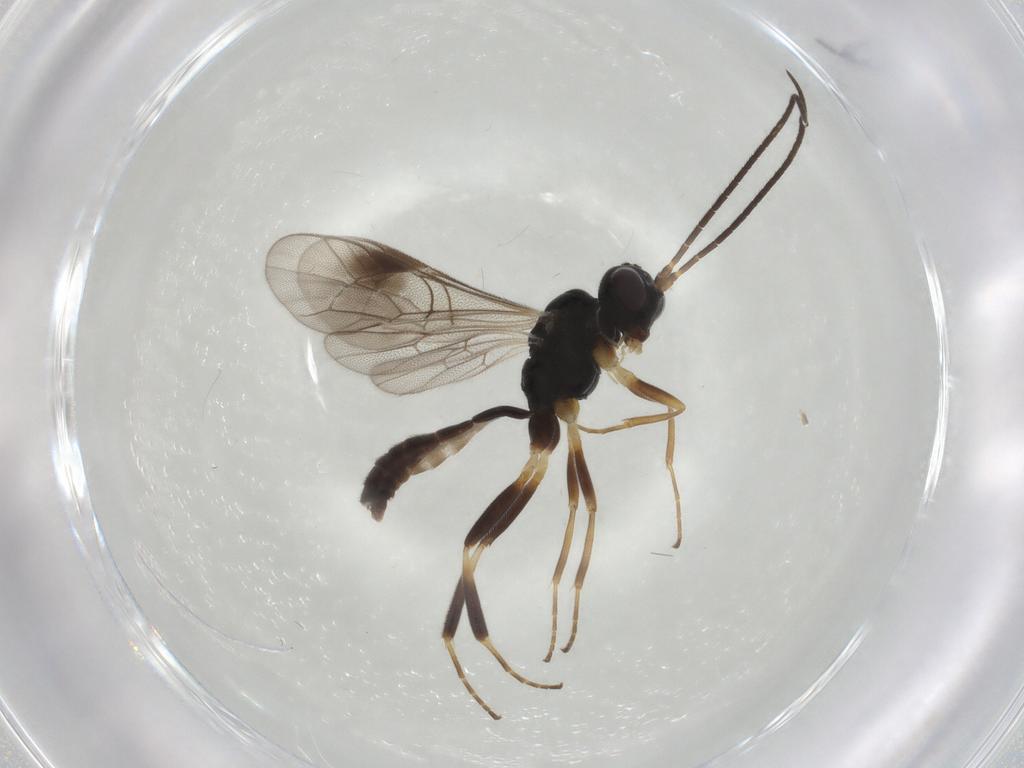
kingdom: Animalia
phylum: Arthropoda
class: Insecta
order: Hymenoptera
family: Ichneumonidae
